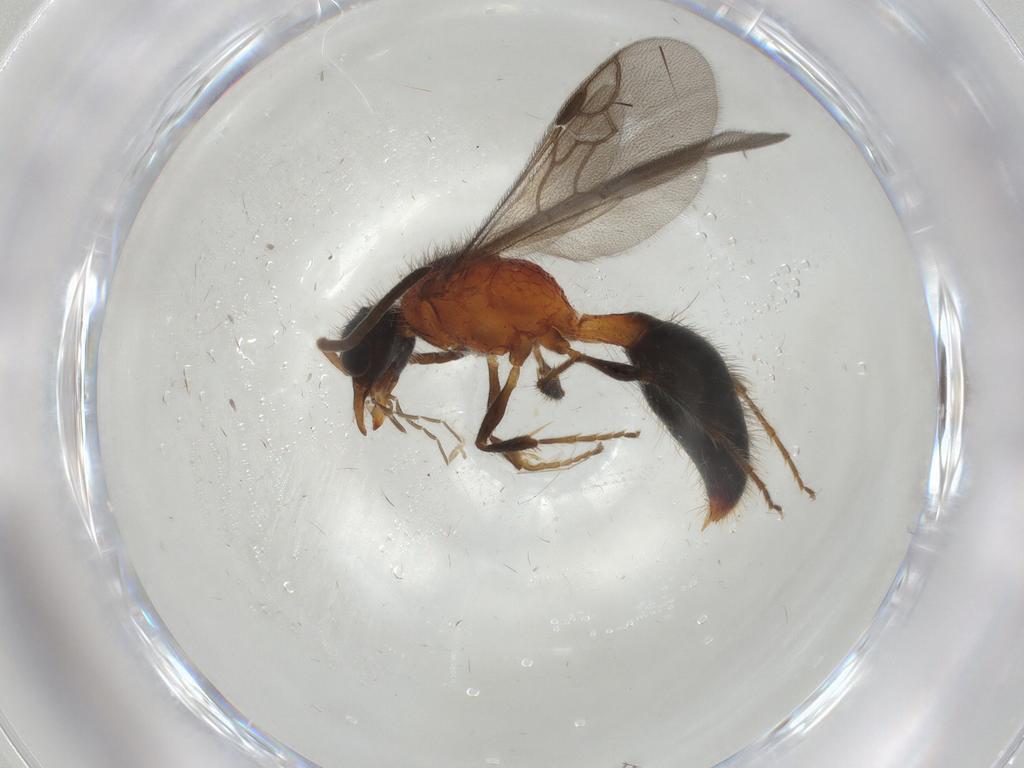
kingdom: Animalia
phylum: Arthropoda
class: Insecta
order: Hymenoptera
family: Mutillidae
